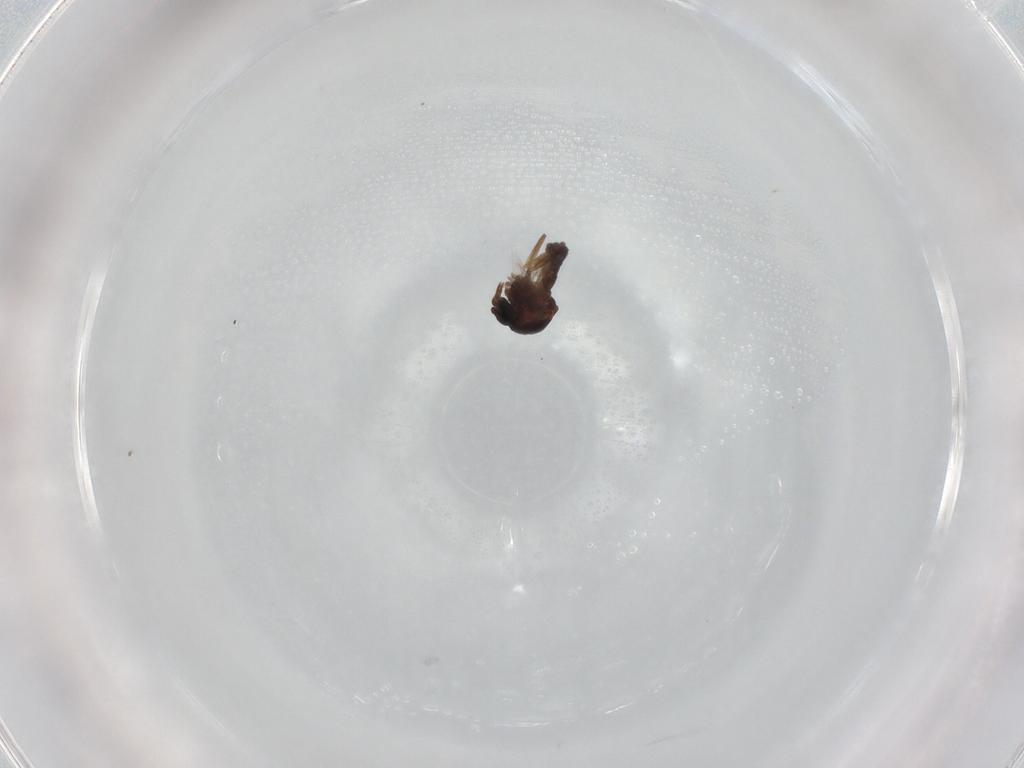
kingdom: Animalia
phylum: Arthropoda
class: Insecta
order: Diptera
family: Ceratopogonidae
